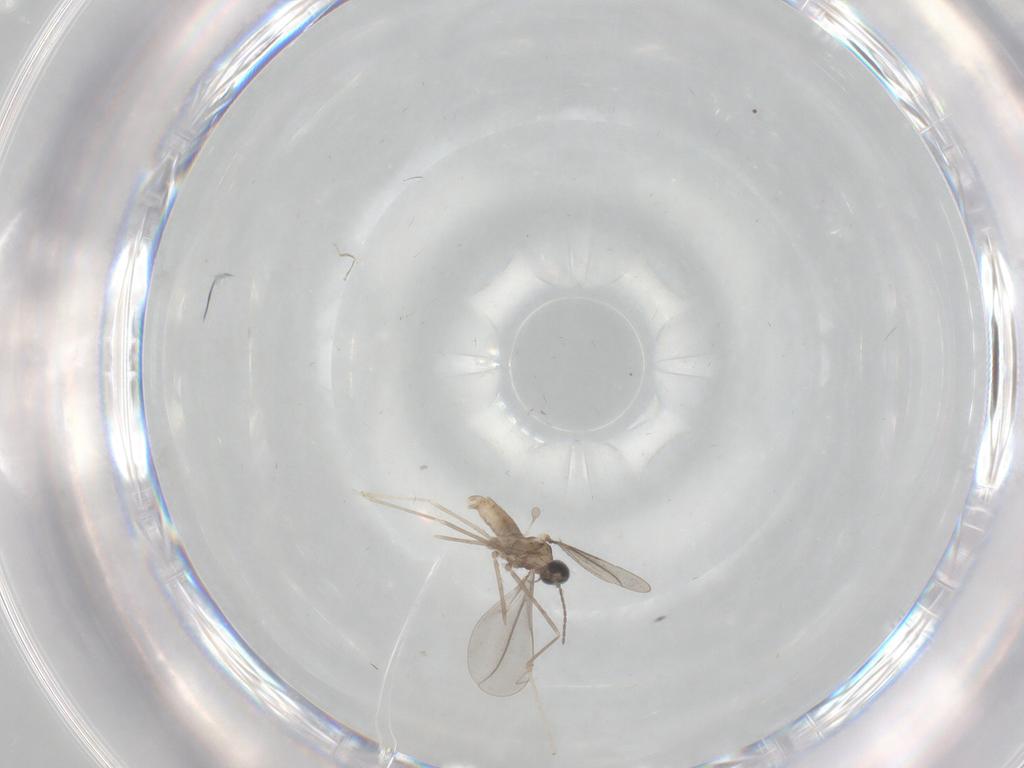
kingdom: Animalia
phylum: Arthropoda
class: Insecta
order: Diptera
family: Cecidomyiidae
